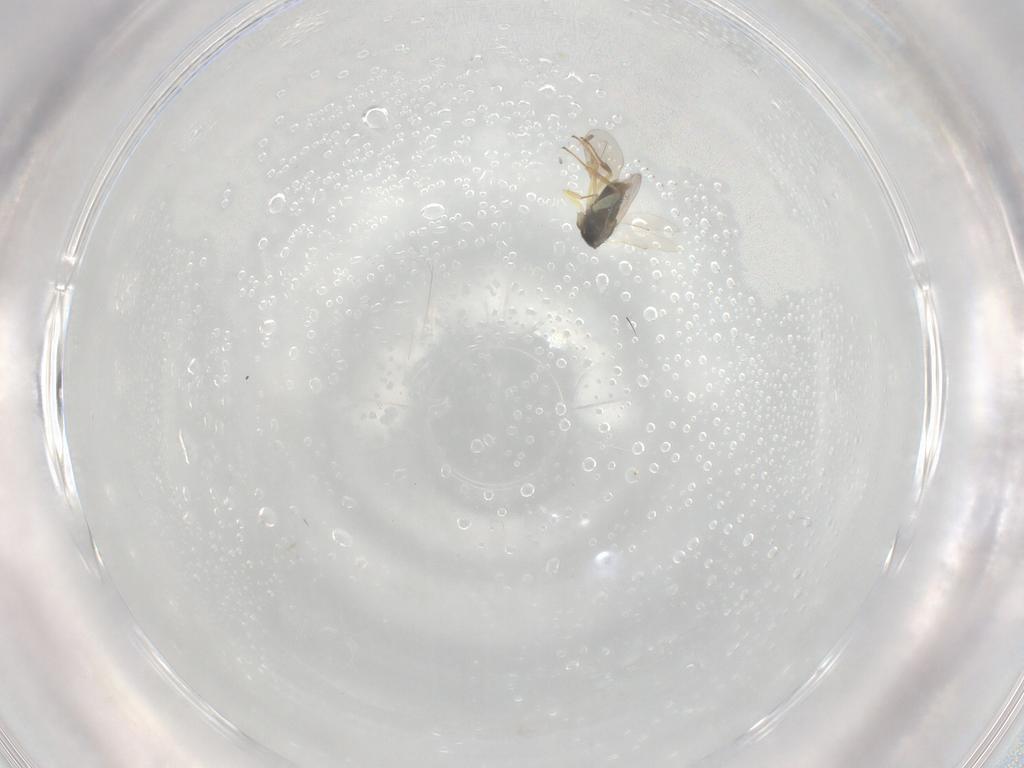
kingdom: Animalia
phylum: Arthropoda
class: Insecta
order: Hymenoptera
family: Aphelinidae
